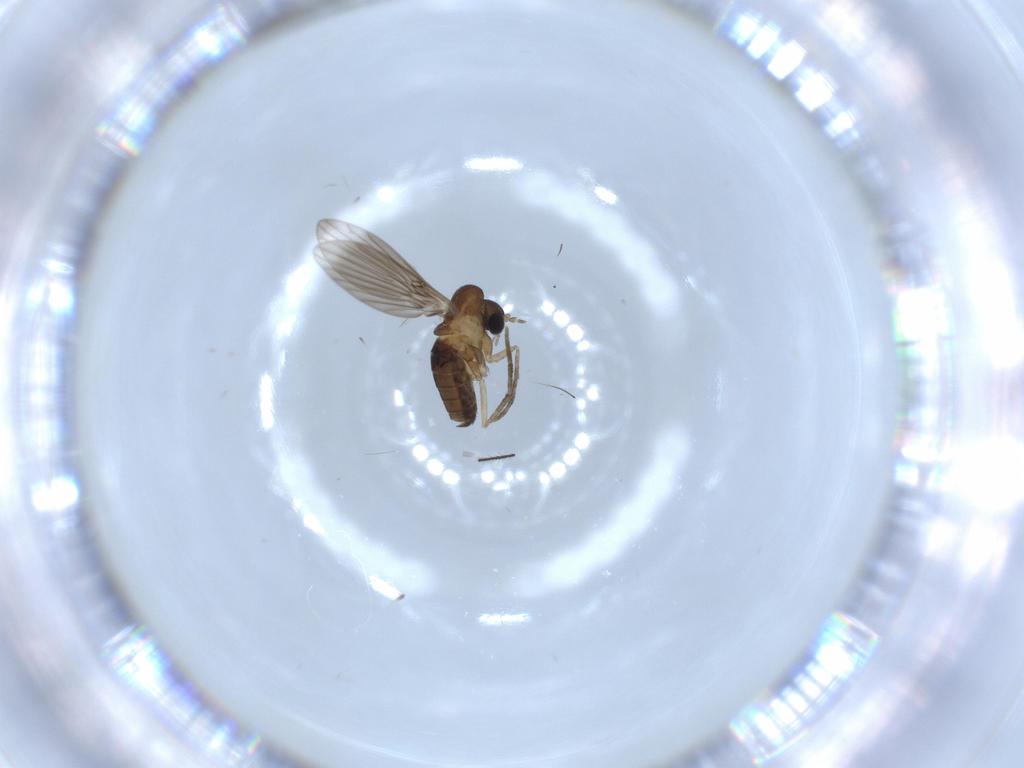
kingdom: Animalia
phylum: Arthropoda
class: Insecta
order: Diptera
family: Psychodidae
